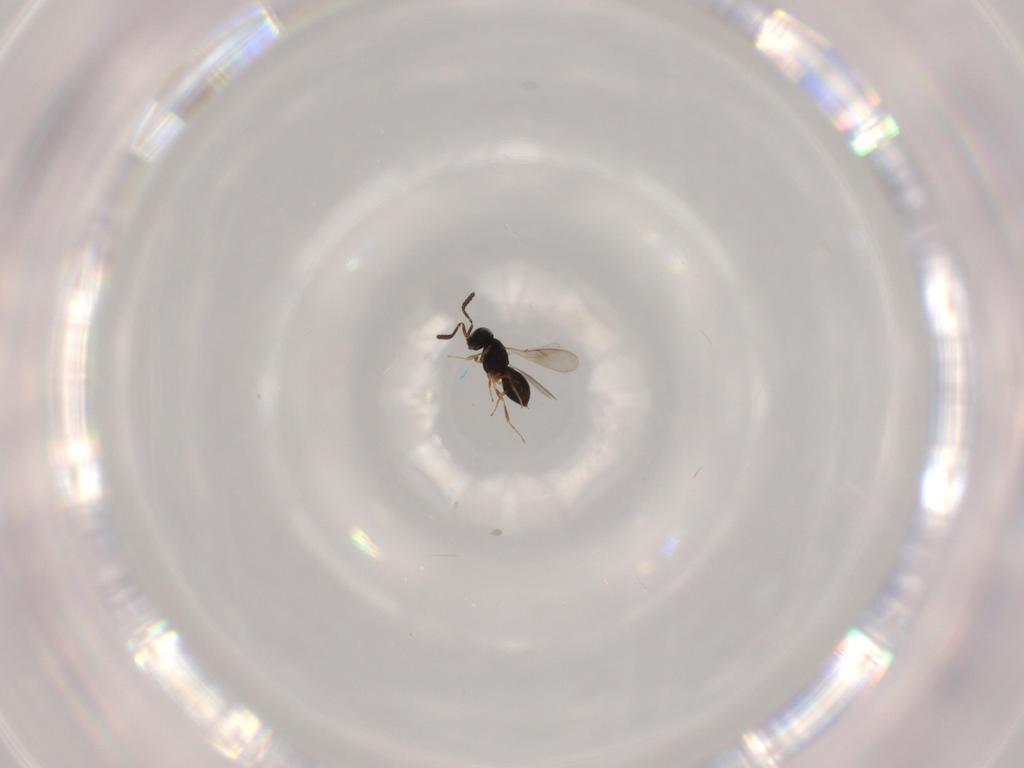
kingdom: Animalia
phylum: Arthropoda
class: Insecta
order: Hymenoptera
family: Scelionidae
